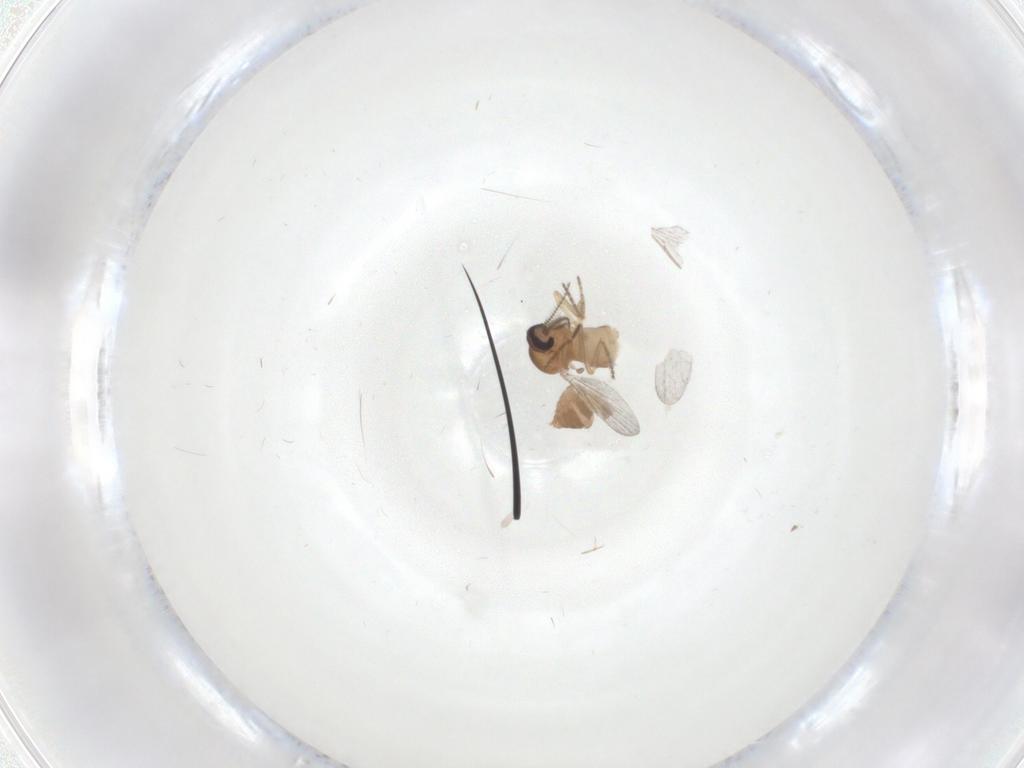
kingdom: Animalia
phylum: Arthropoda
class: Insecta
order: Diptera
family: Ceratopogonidae
